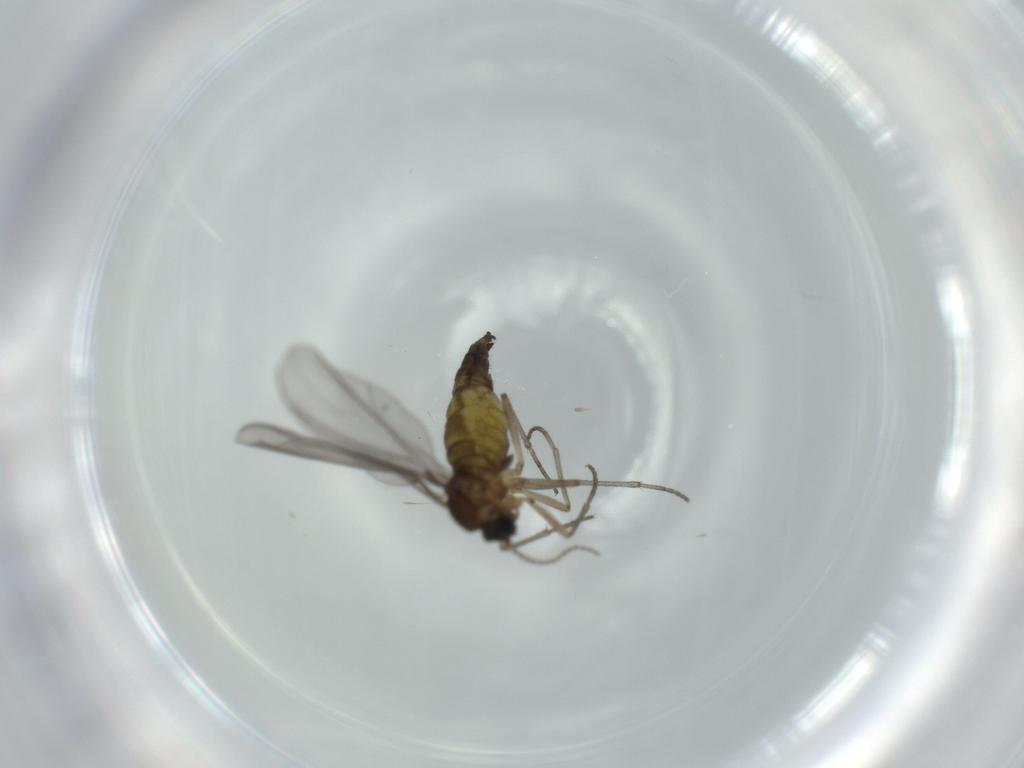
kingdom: Animalia
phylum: Arthropoda
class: Insecta
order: Diptera
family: Sciaridae
